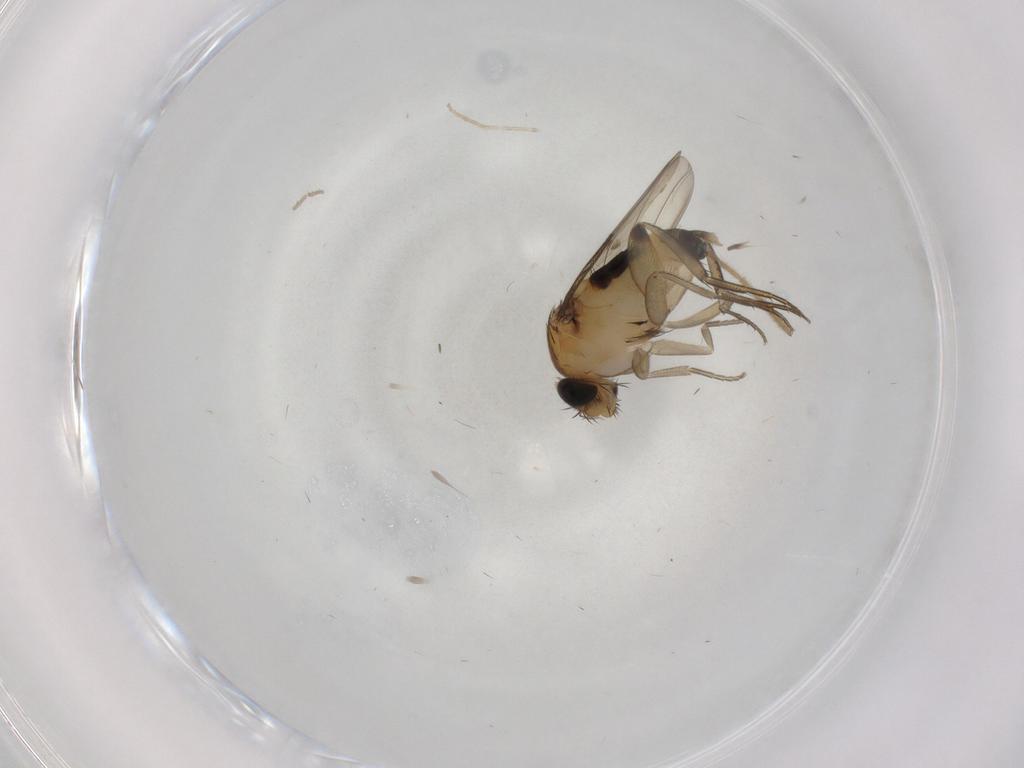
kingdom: Animalia
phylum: Arthropoda
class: Insecta
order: Diptera
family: Phoridae
